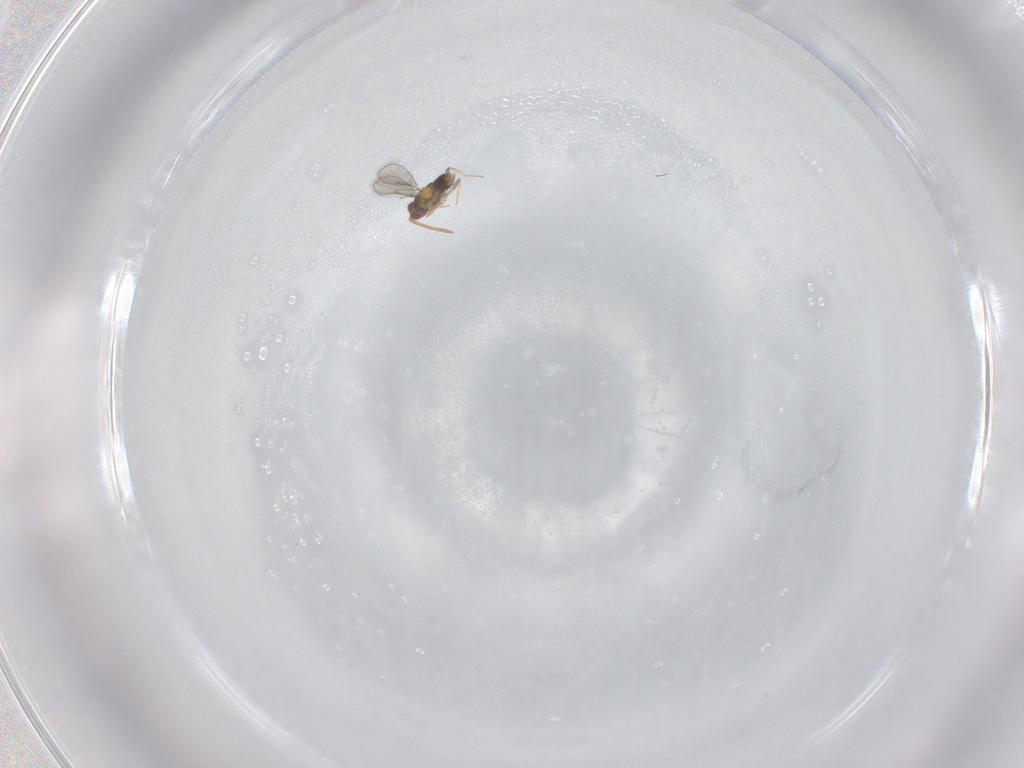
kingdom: Animalia
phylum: Arthropoda
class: Insecta
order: Hymenoptera
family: Aphelinidae
